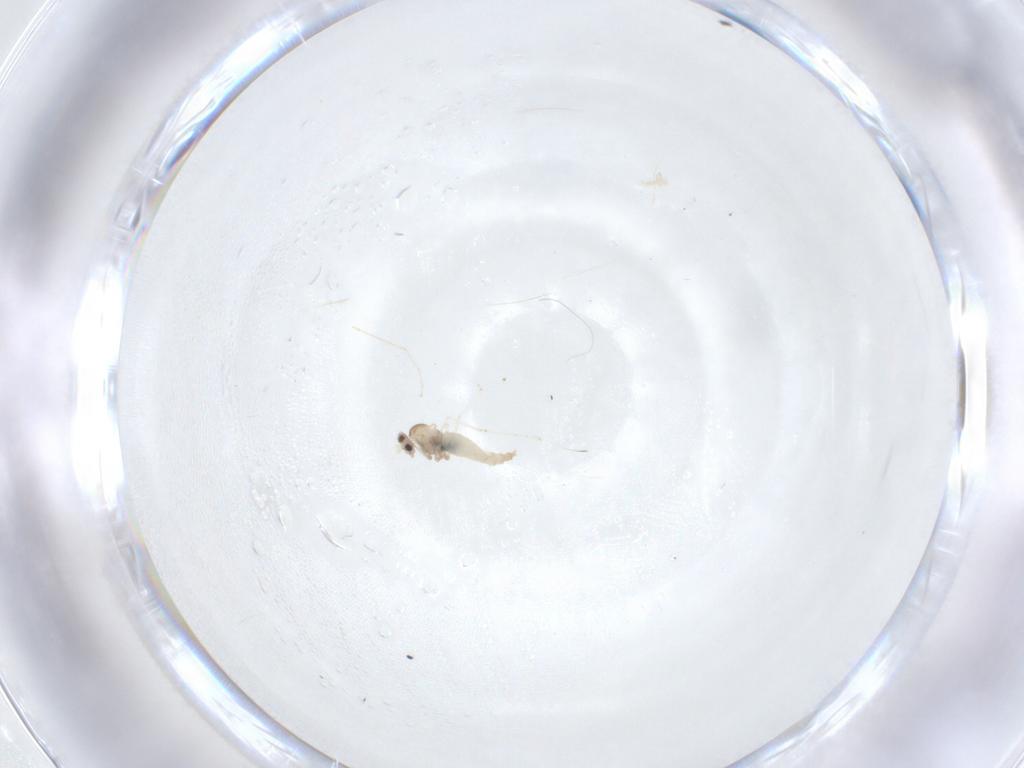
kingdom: Animalia
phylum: Arthropoda
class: Insecta
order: Diptera
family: Cecidomyiidae
